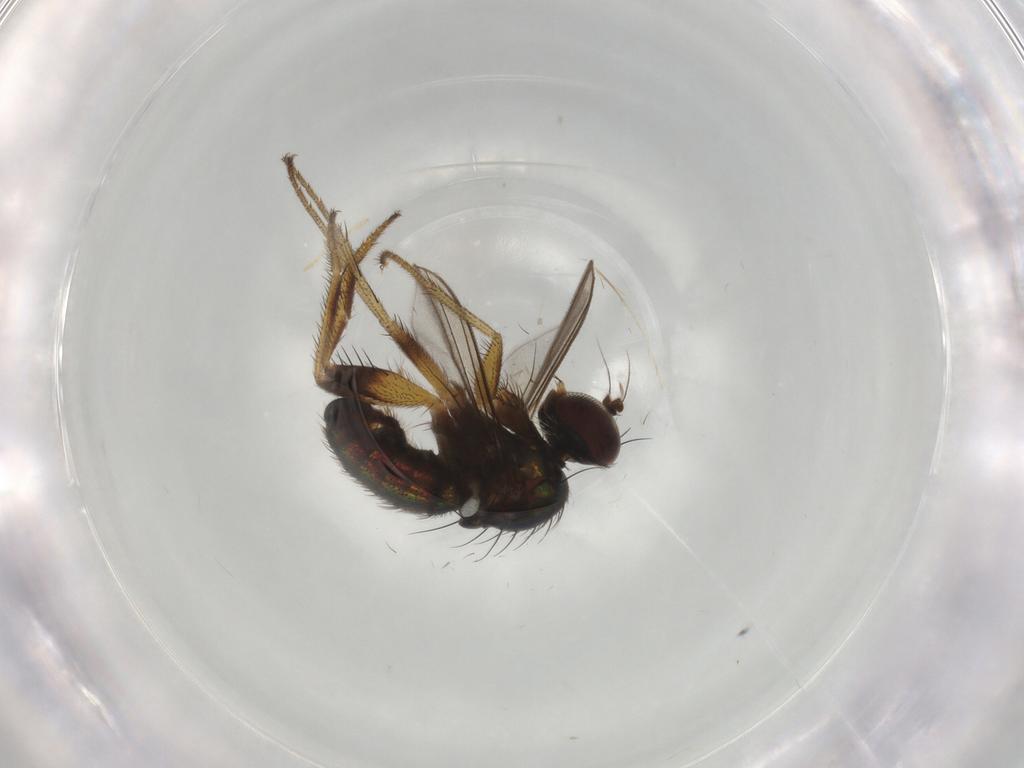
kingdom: Animalia
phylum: Arthropoda
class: Insecta
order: Diptera
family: Dolichopodidae
